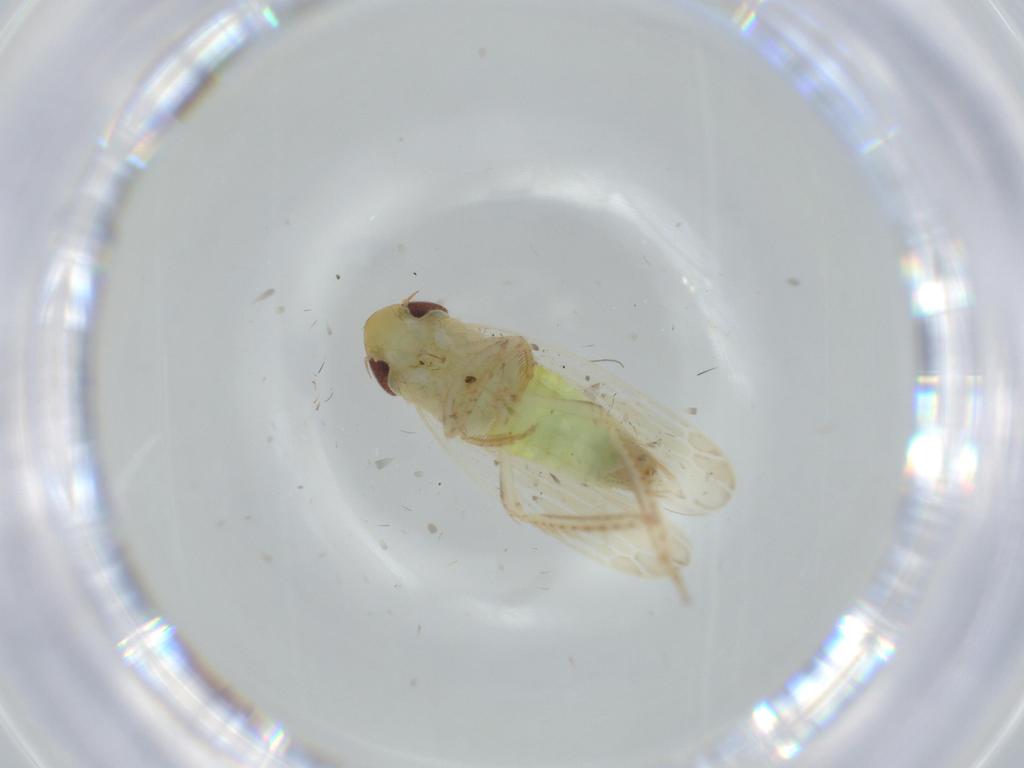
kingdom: Animalia
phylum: Arthropoda
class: Insecta
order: Hemiptera
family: Cicadellidae
